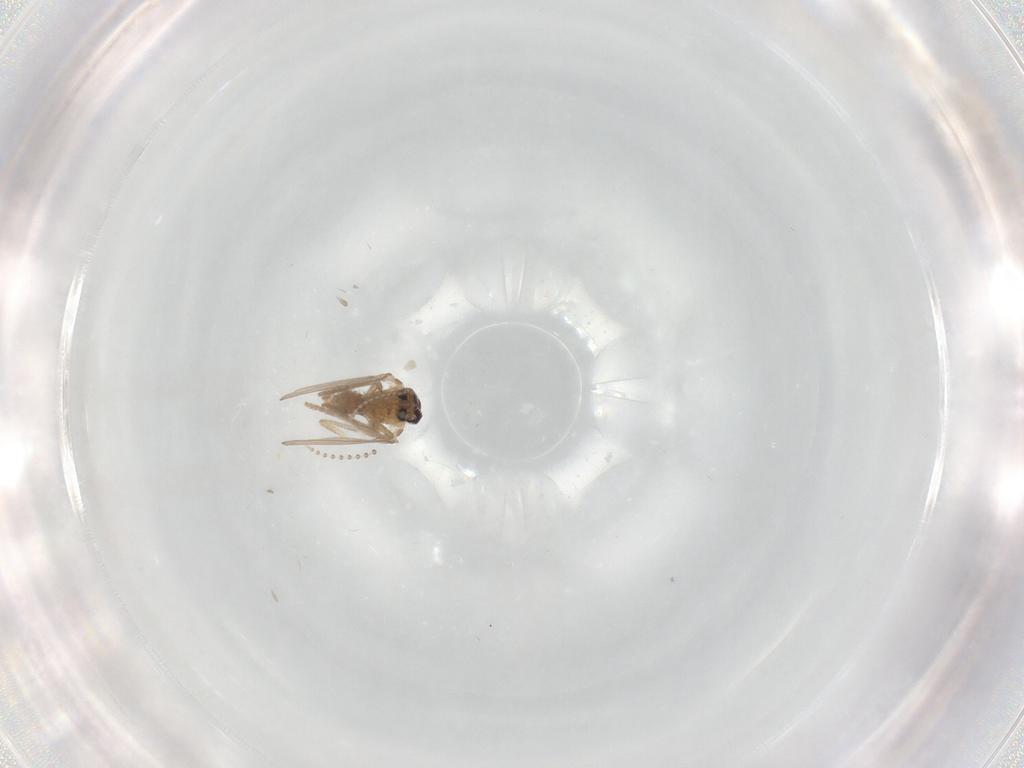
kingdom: Animalia
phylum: Arthropoda
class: Insecta
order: Diptera
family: Psychodidae
